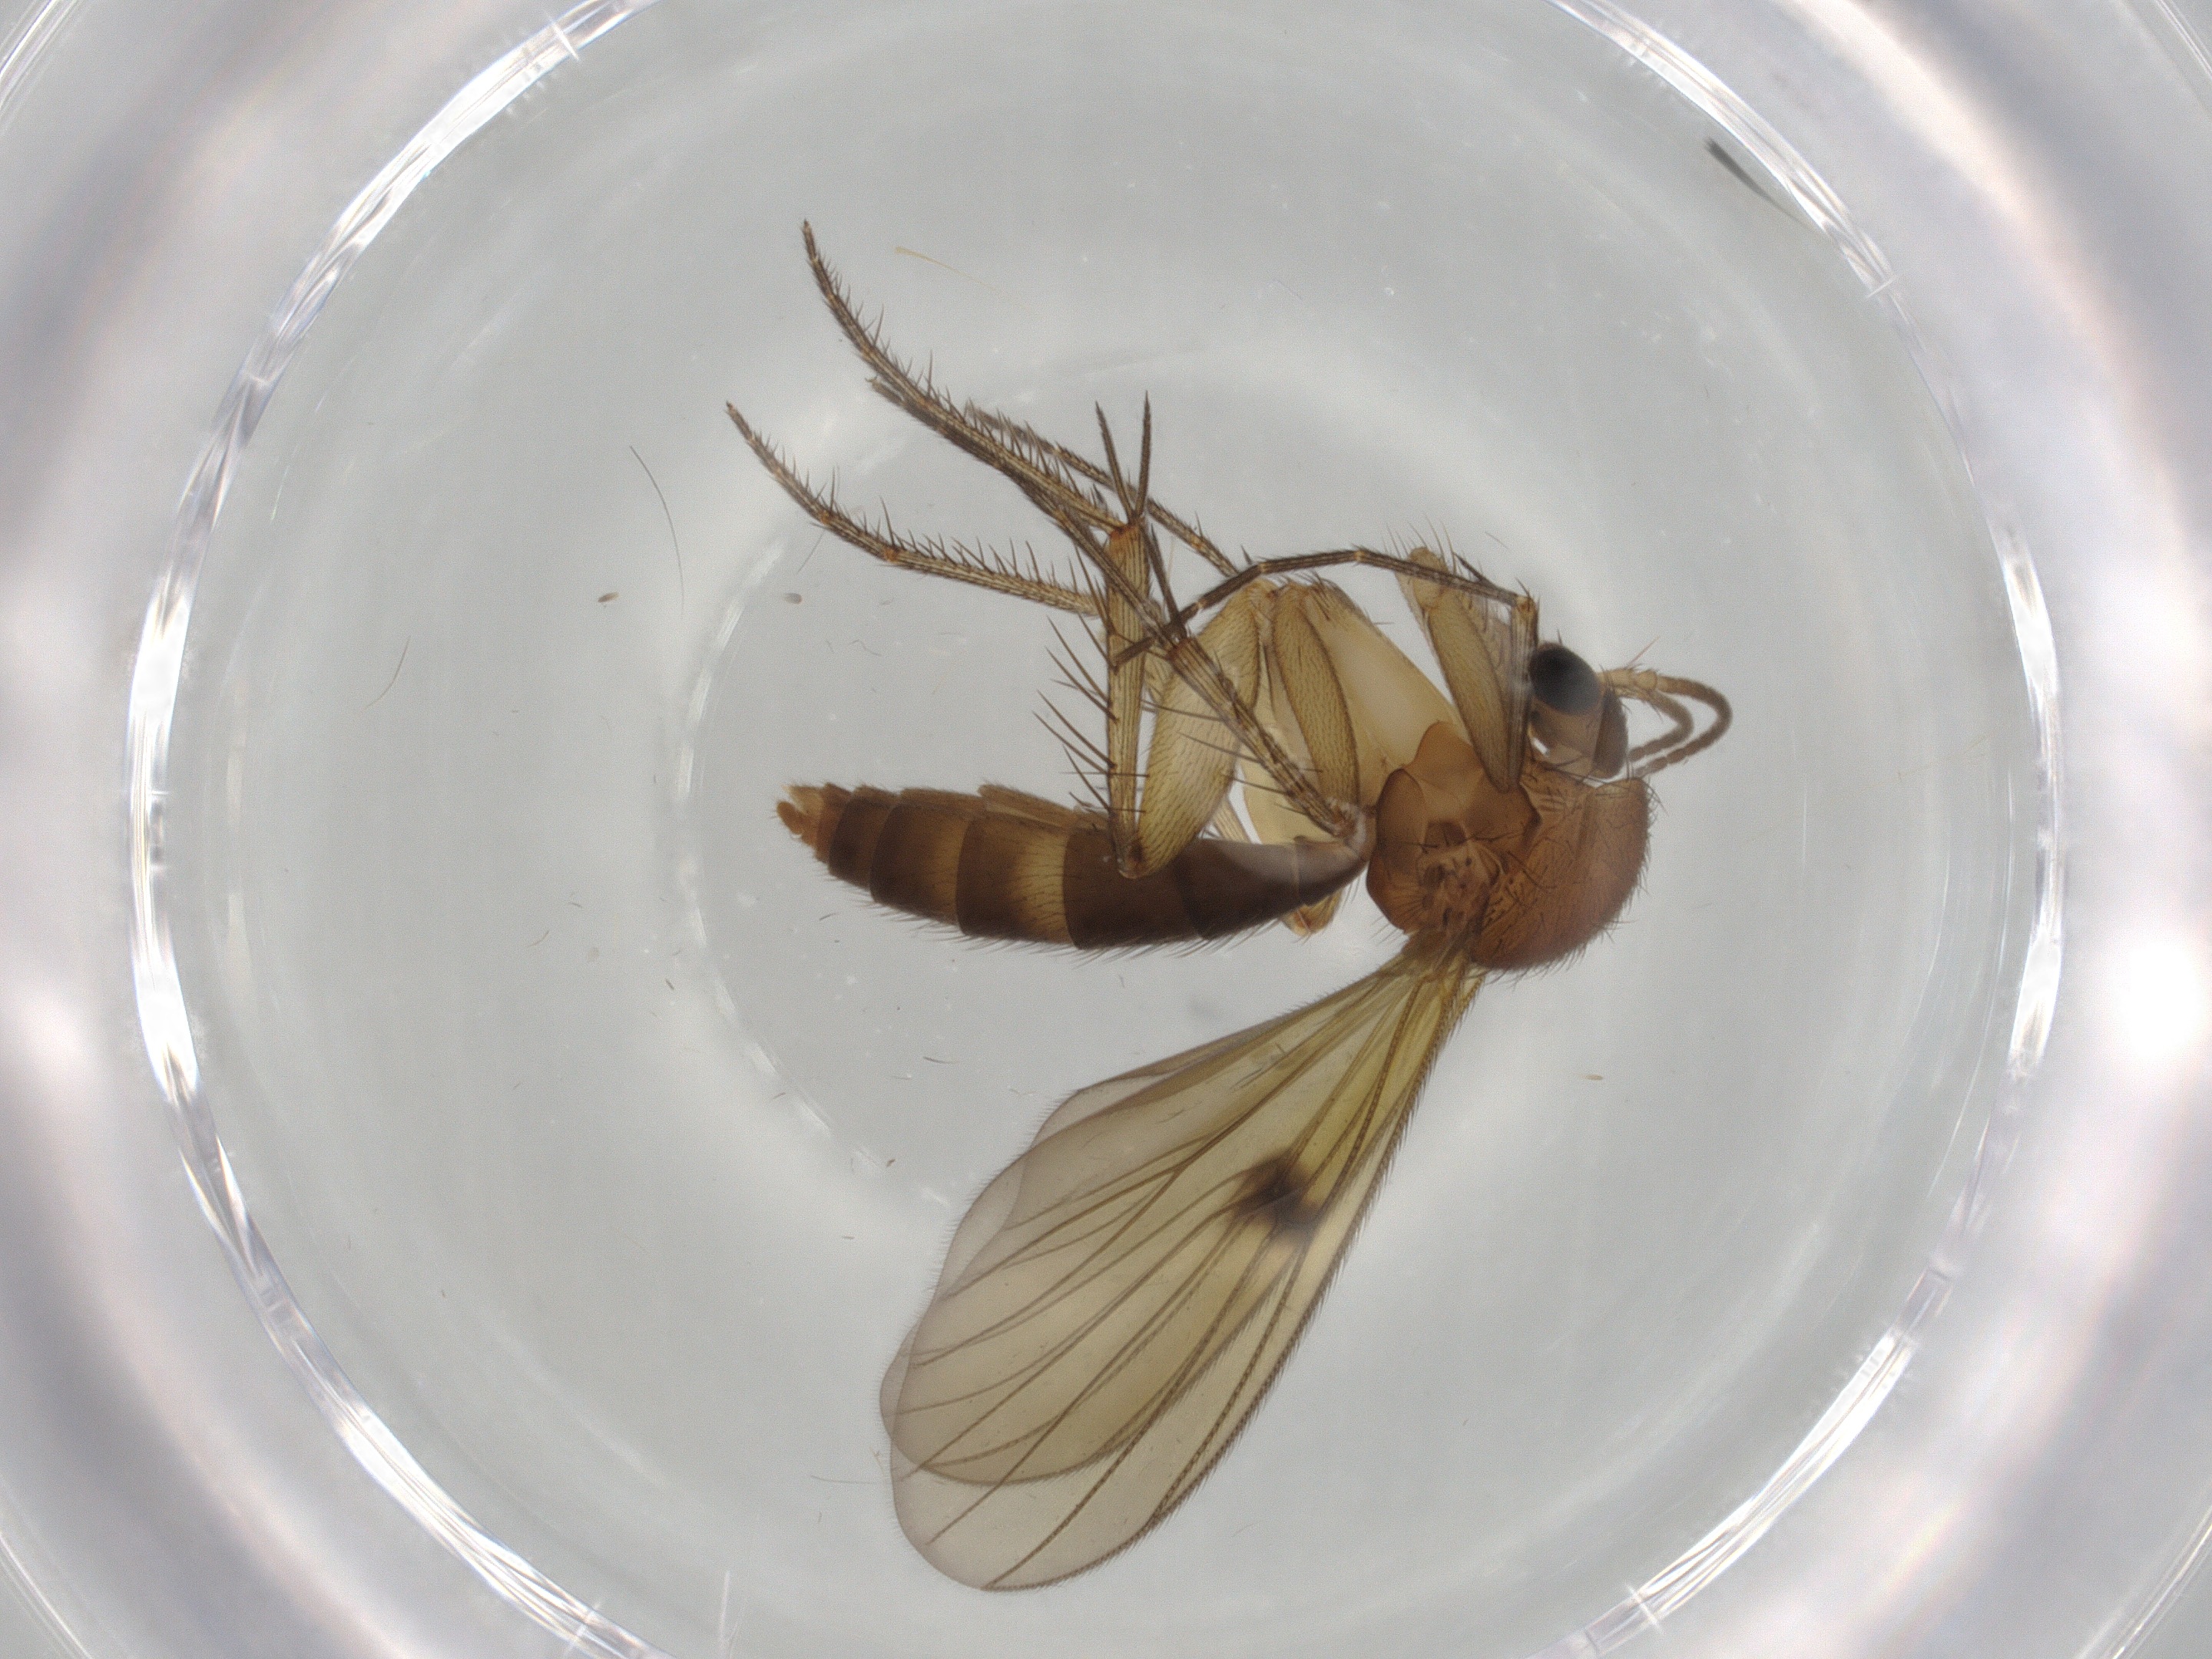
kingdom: Animalia
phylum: Arthropoda
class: Insecta
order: Diptera
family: Mycetophilidae
